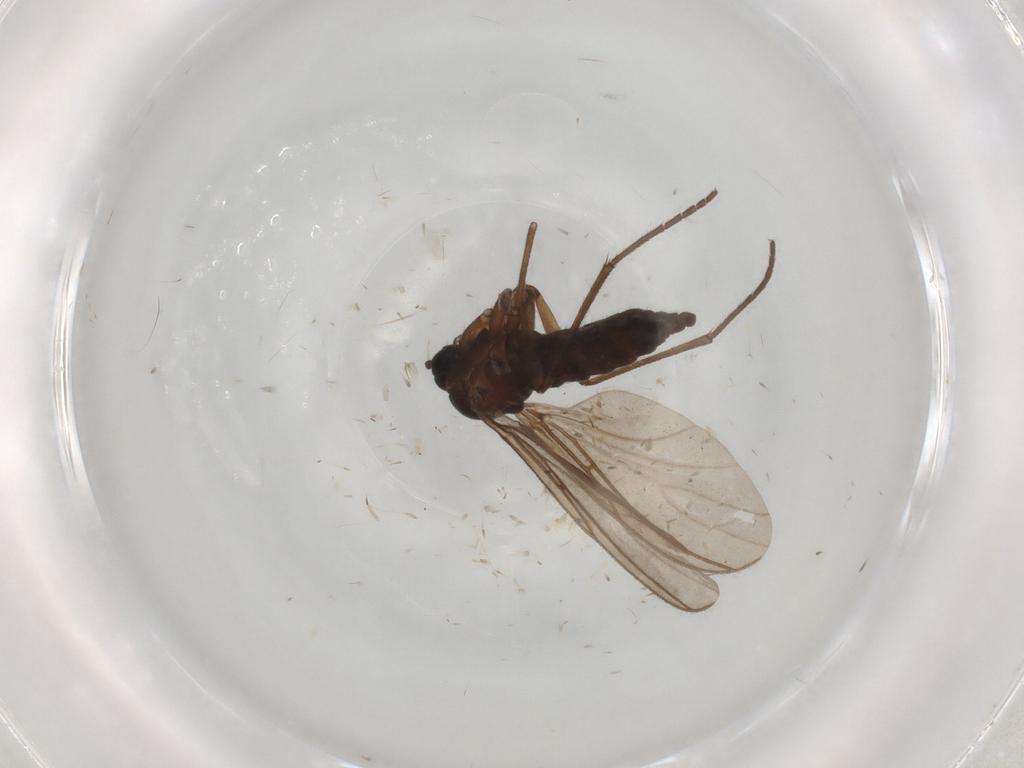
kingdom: Animalia
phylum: Arthropoda
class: Insecta
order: Diptera
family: Sciaridae
